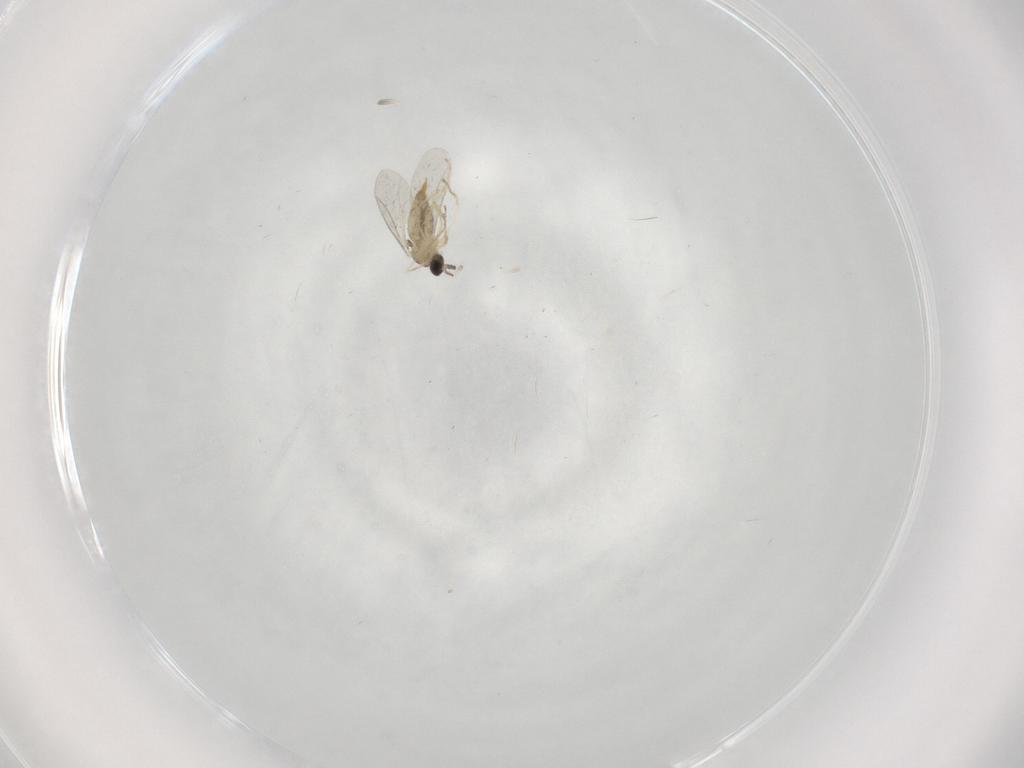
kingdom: Animalia
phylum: Arthropoda
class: Insecta
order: Diptera
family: Cecidomyiidae
